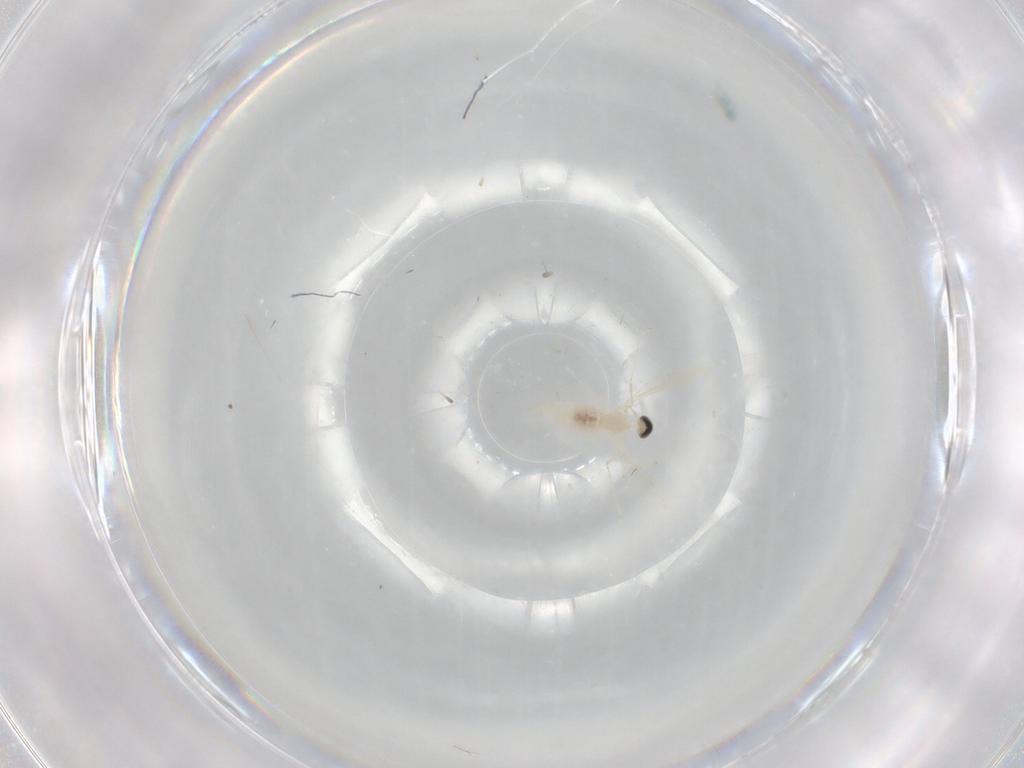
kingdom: Animalia
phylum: Arthropoda
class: Insecta
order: Diptera
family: Cecidomyiidae
